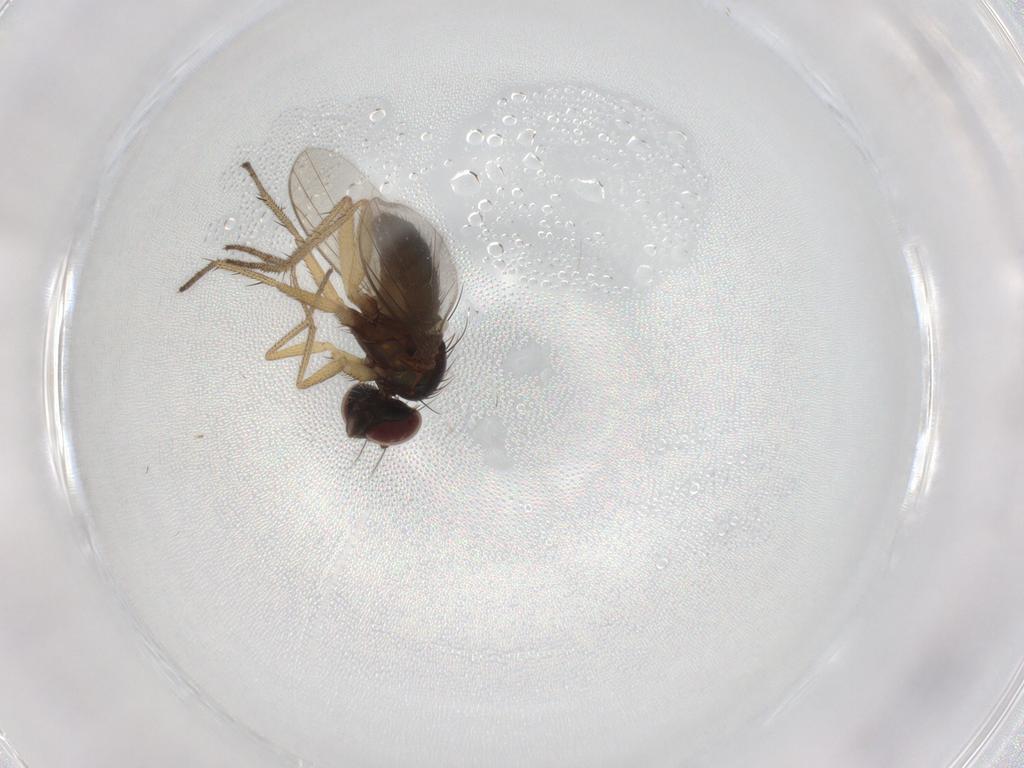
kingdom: Animalia
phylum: Arthropoda
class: Insecta
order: Diptera
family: Dolichopodidae
